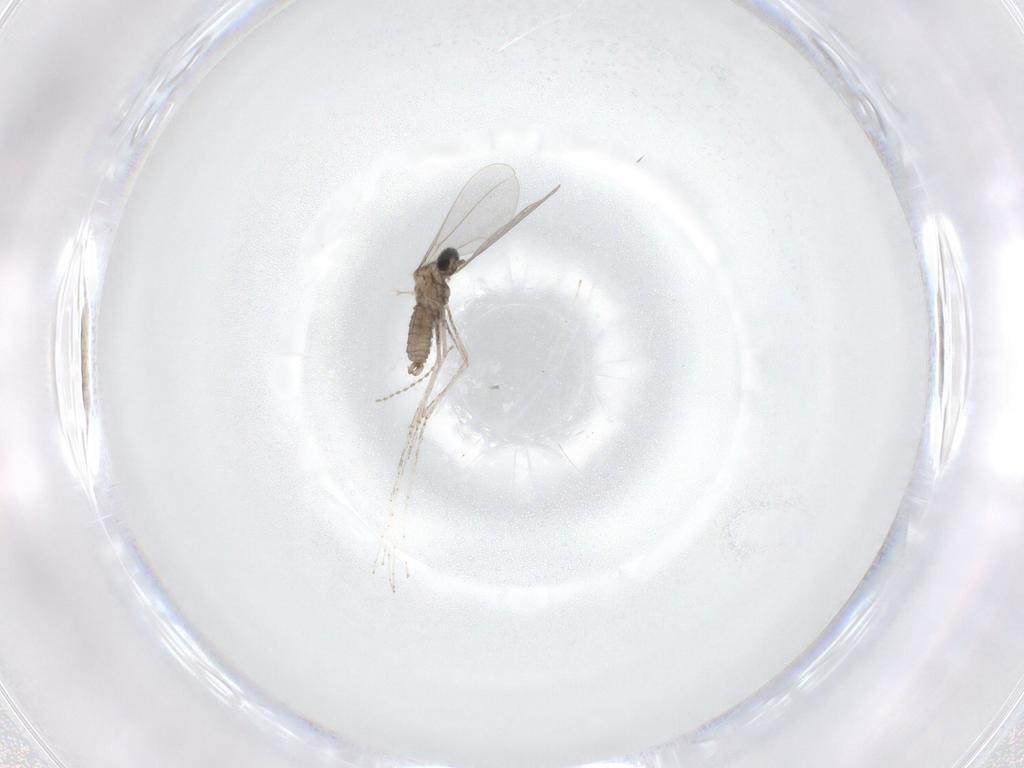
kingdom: Animalia
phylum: Arthropoda
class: Insecta
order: Diptera
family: Cecidomyiidae
